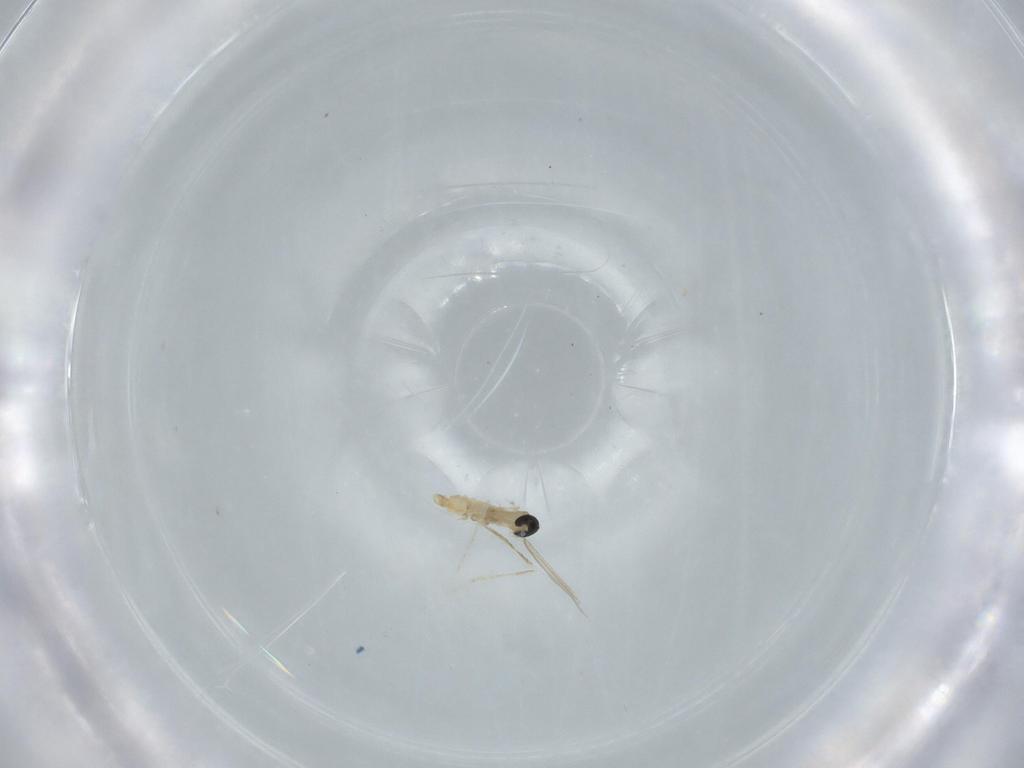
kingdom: Animalia
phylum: Arthropoda
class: Insecta
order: Diptera
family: Cecidomyiidae
